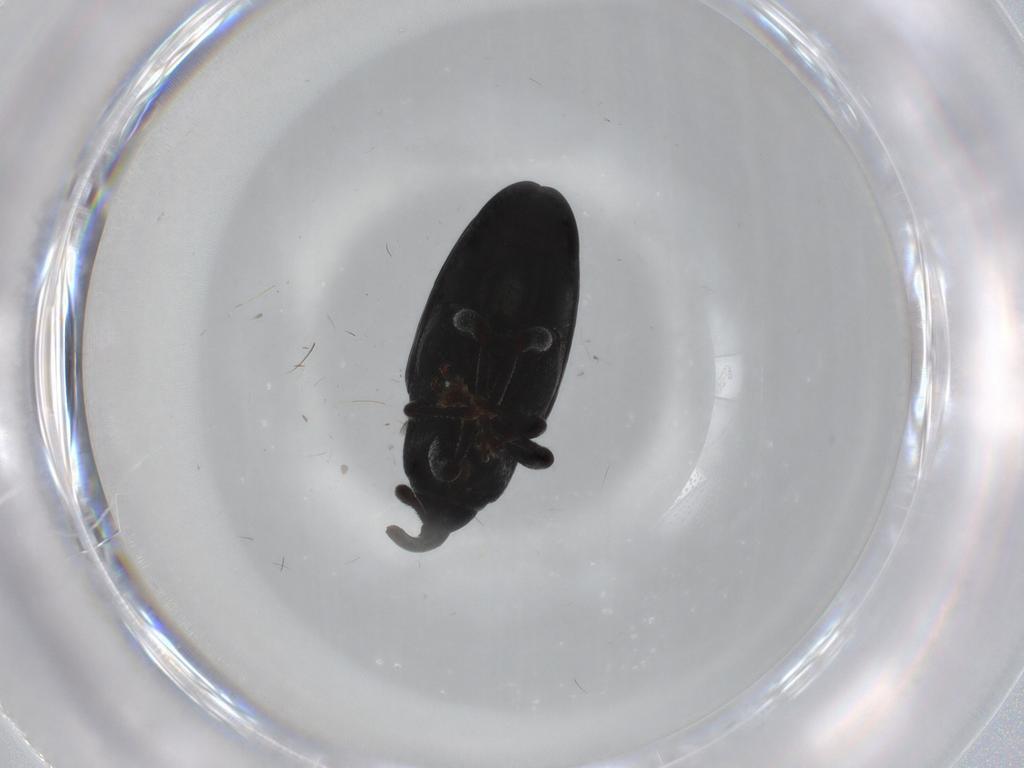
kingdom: Animalia
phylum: Arthropoda
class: Insecta
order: Coleoptera
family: Curculionidae
